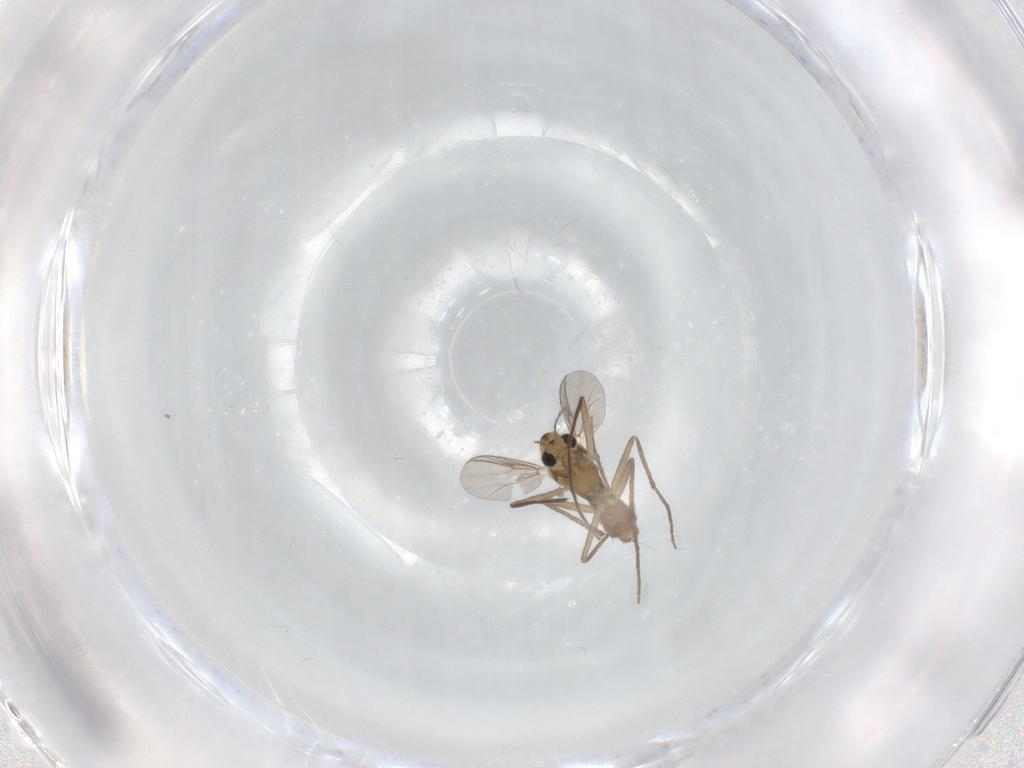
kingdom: Animalia
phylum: Arthropoda
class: Insecta
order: Diptera
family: Chironomidae
